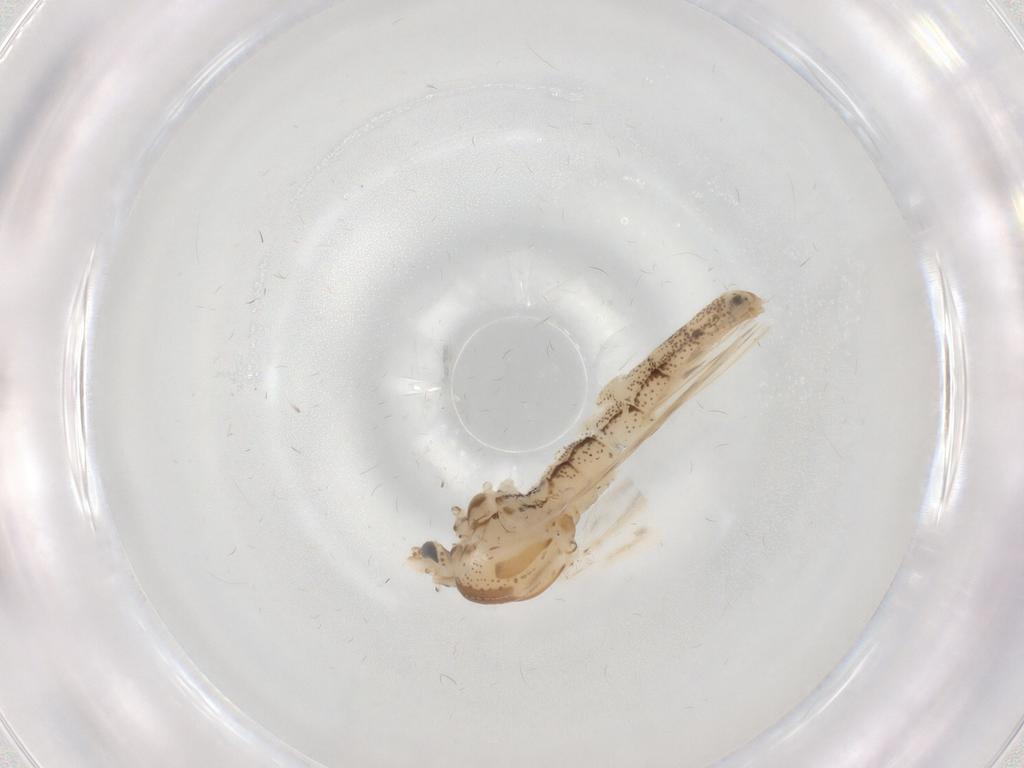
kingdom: Animalia
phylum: Arthropoda
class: Insecta
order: Diptera
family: Chaoboridae
